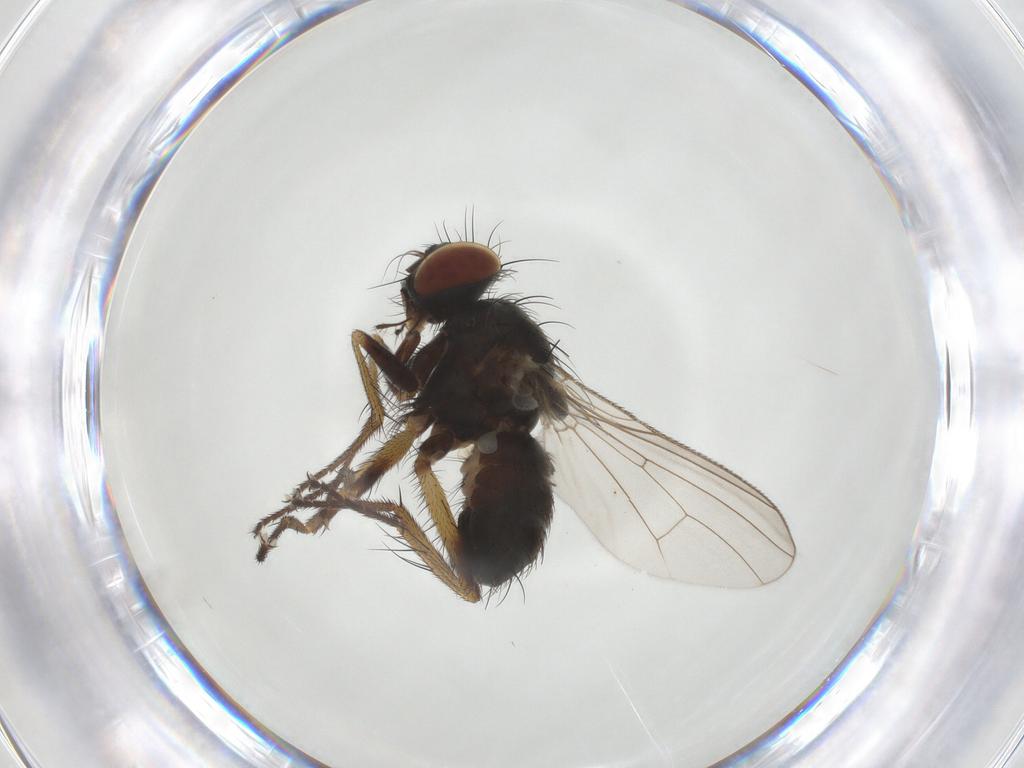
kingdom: Animalia
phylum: Arthropoda
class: Insecta
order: Diptera
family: Muscidae
